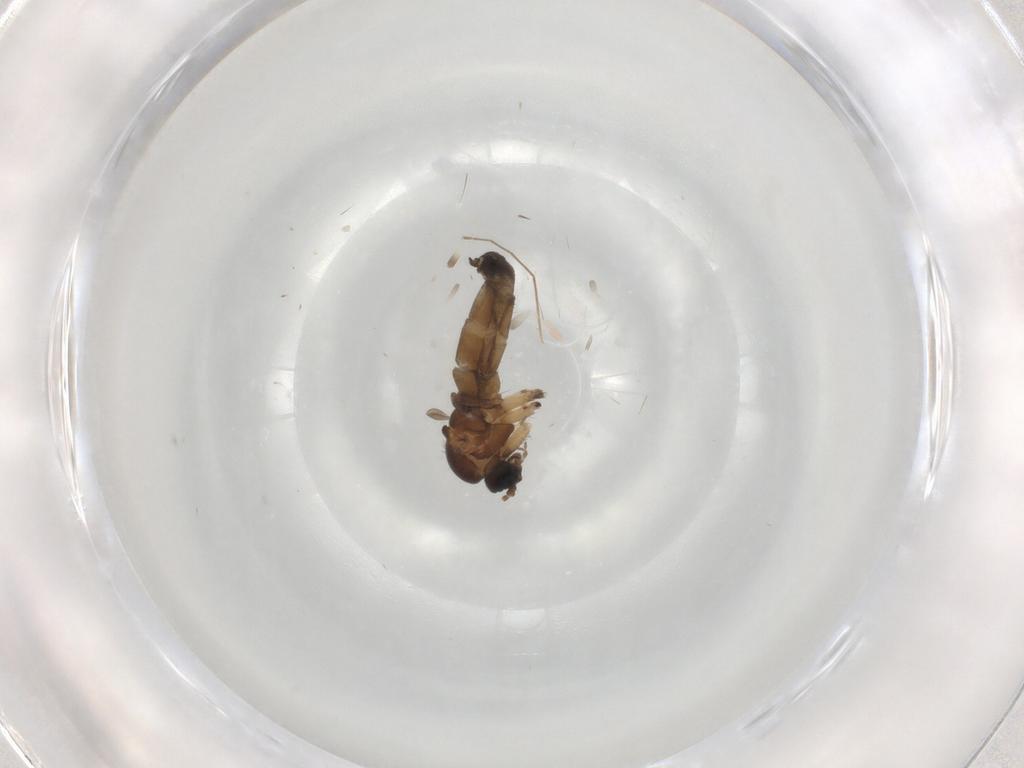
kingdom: Animalia
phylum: Arthropoda
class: Insecta
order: Diptera
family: Sciaridae
